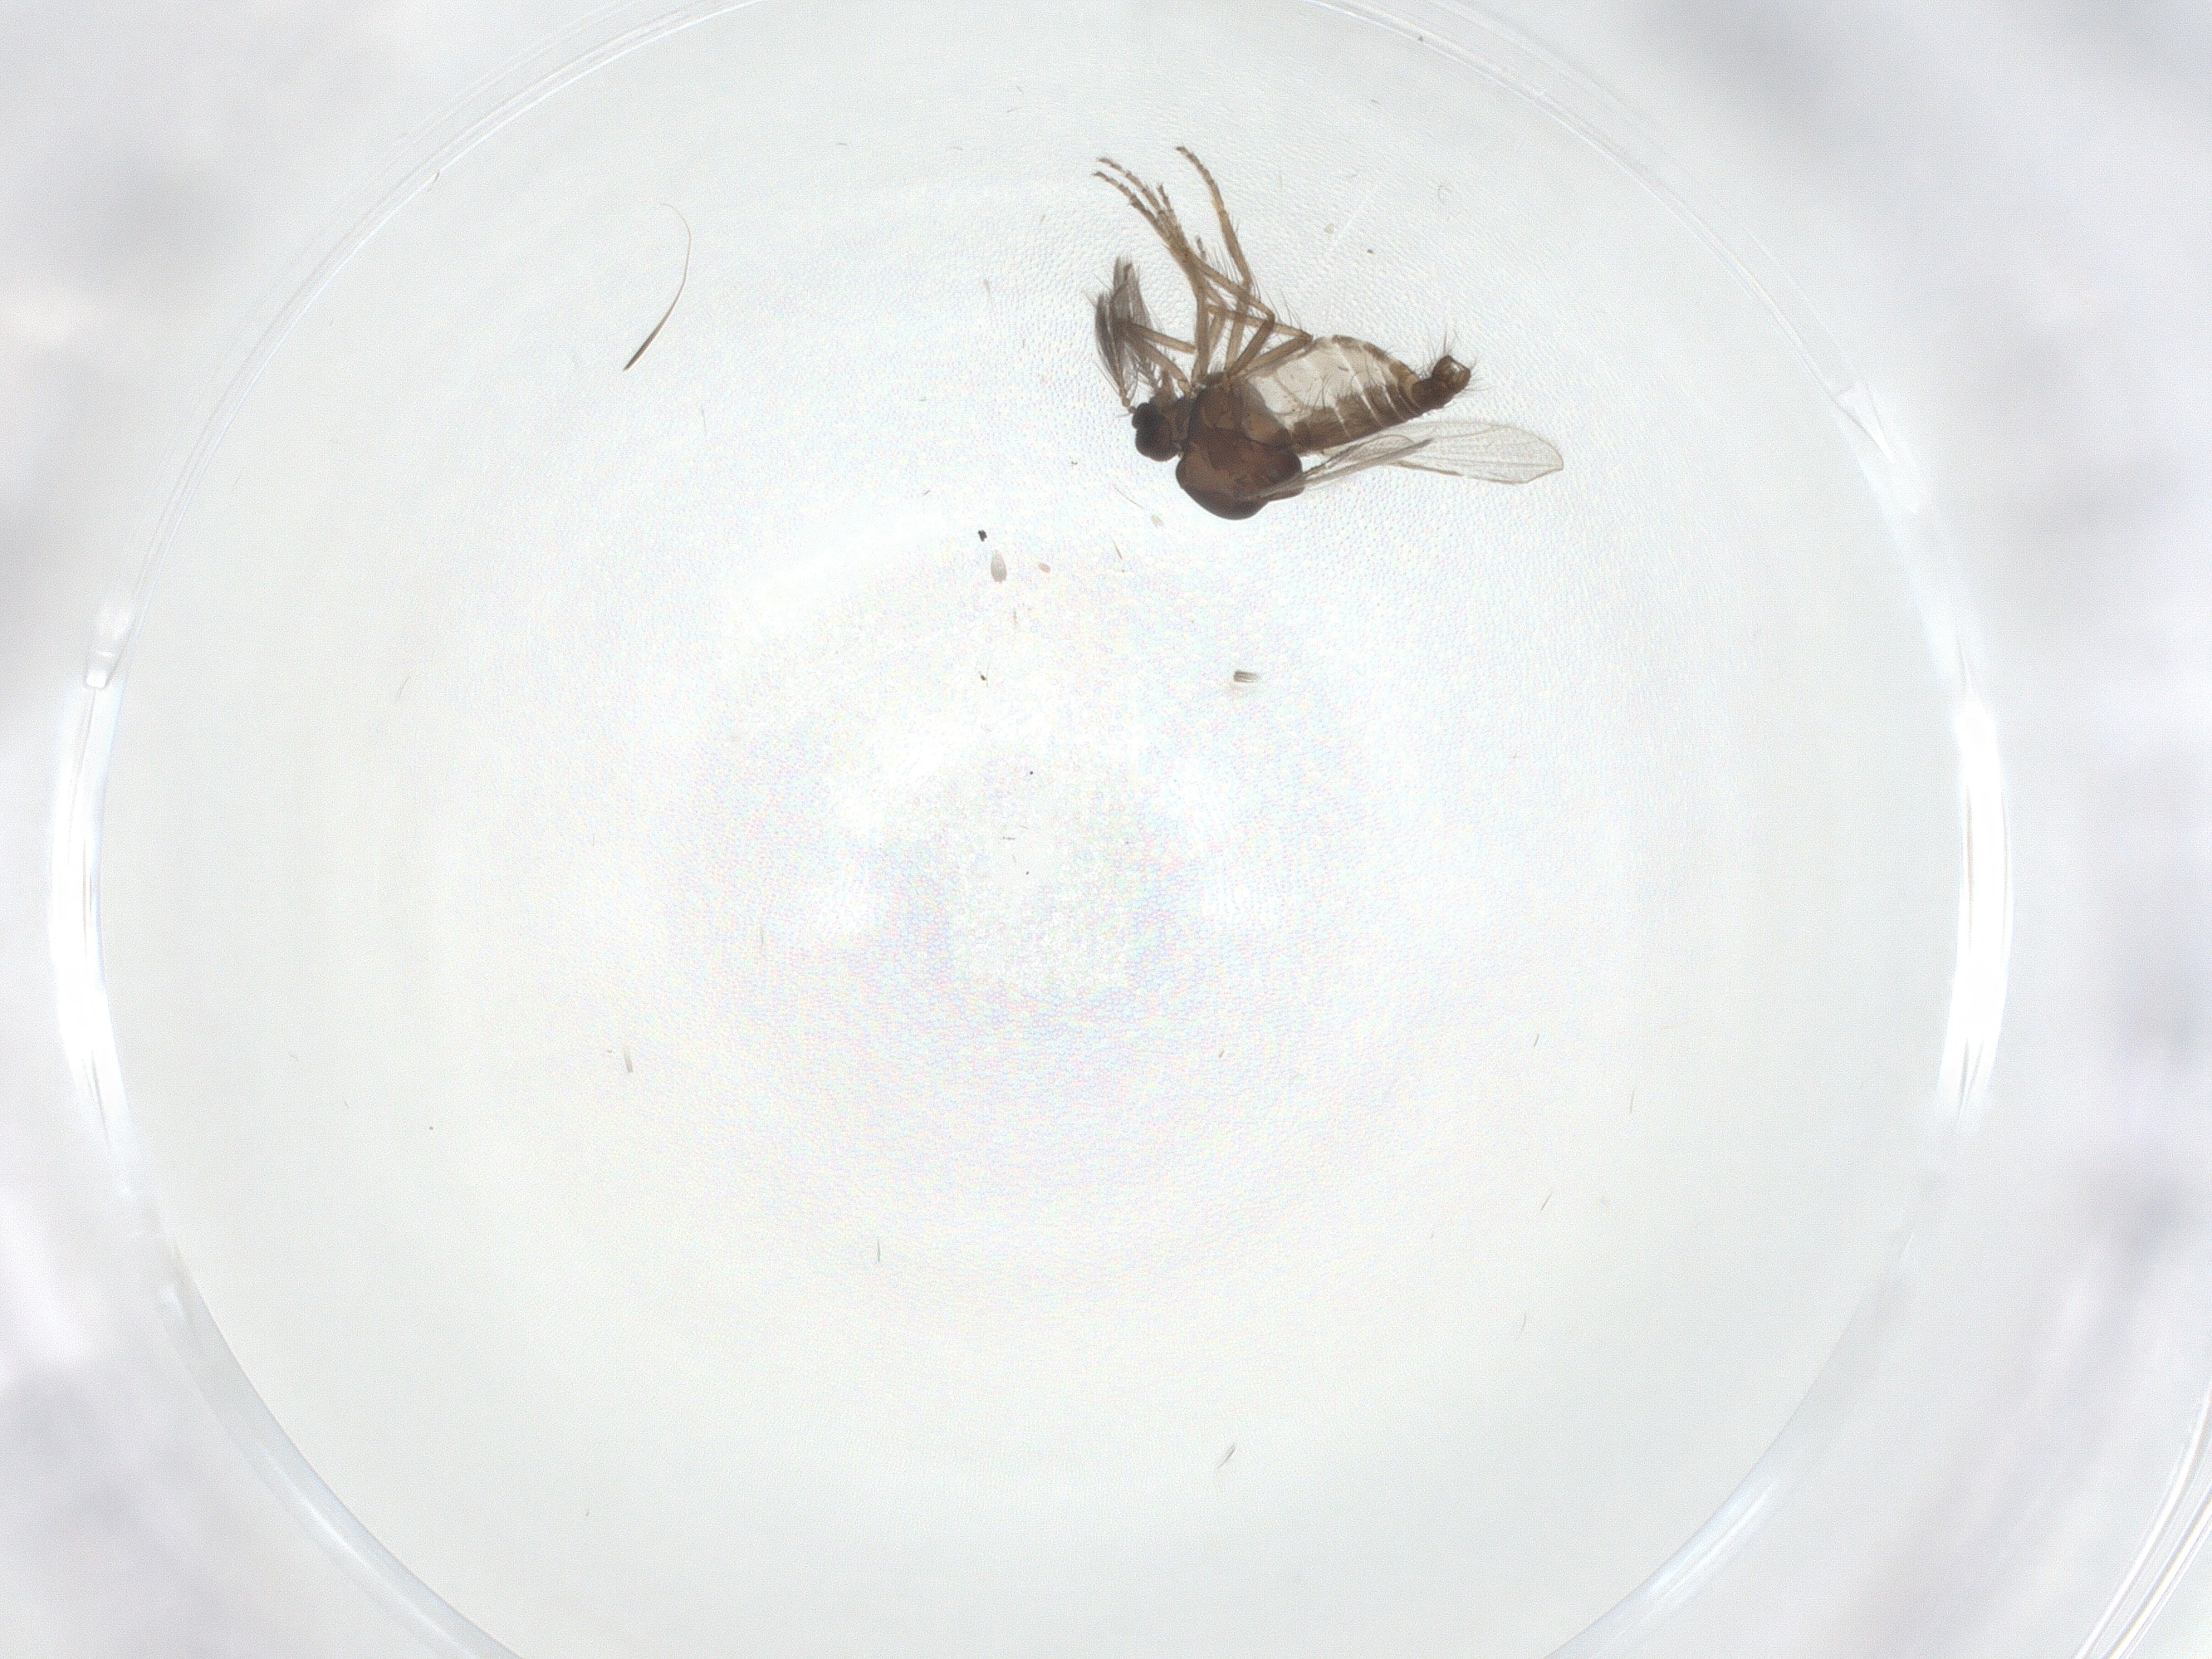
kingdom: Animalia
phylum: Arthropoda
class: Insecta
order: Diptera
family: Ceratopogonidae
